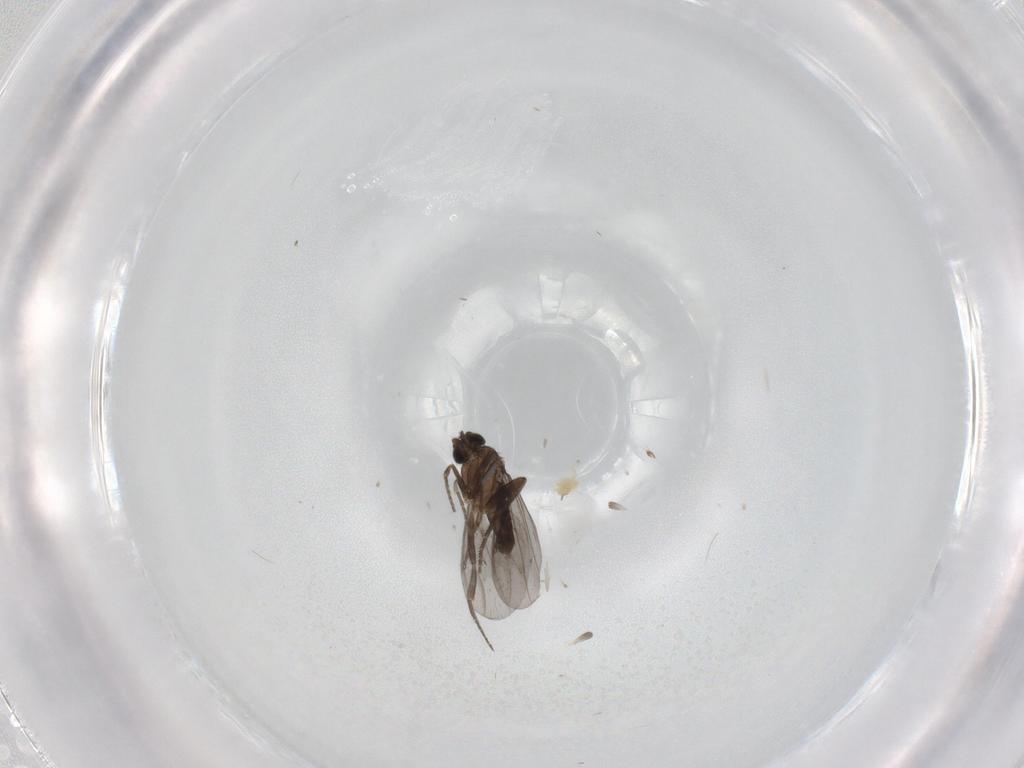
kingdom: Animalia
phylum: Arthropoda
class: Insecta
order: Diptera
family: Phoridae
